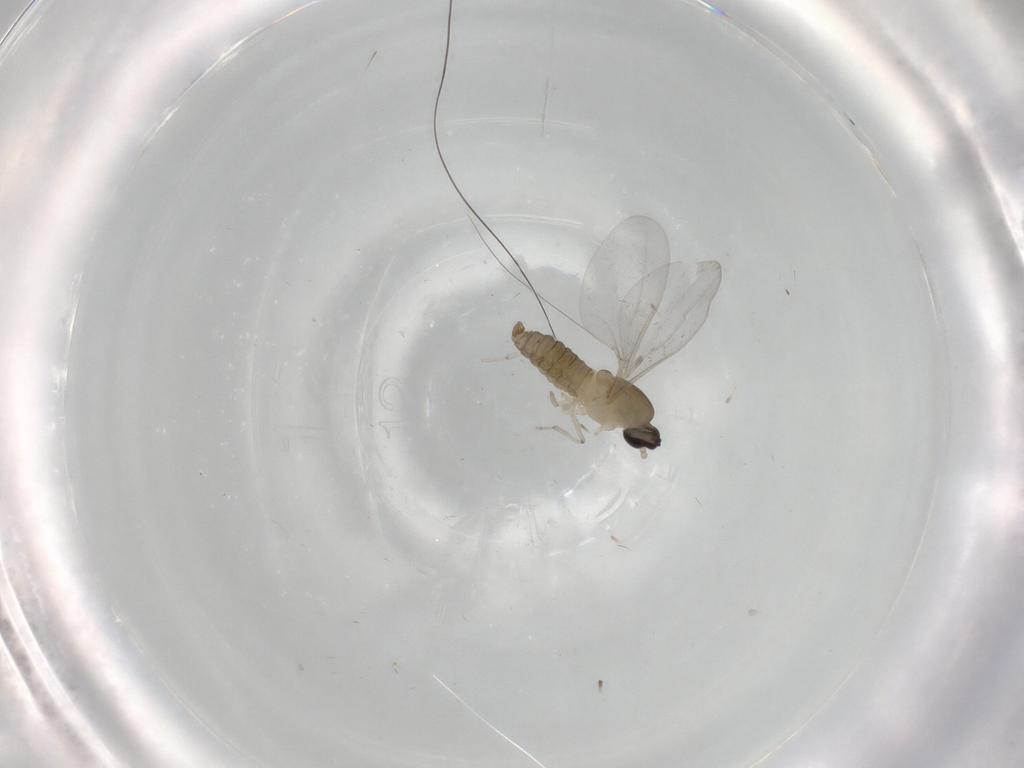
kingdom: Animalia
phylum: Arthropoda
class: Insecta
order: Diptera
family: Cecidomyiidae
